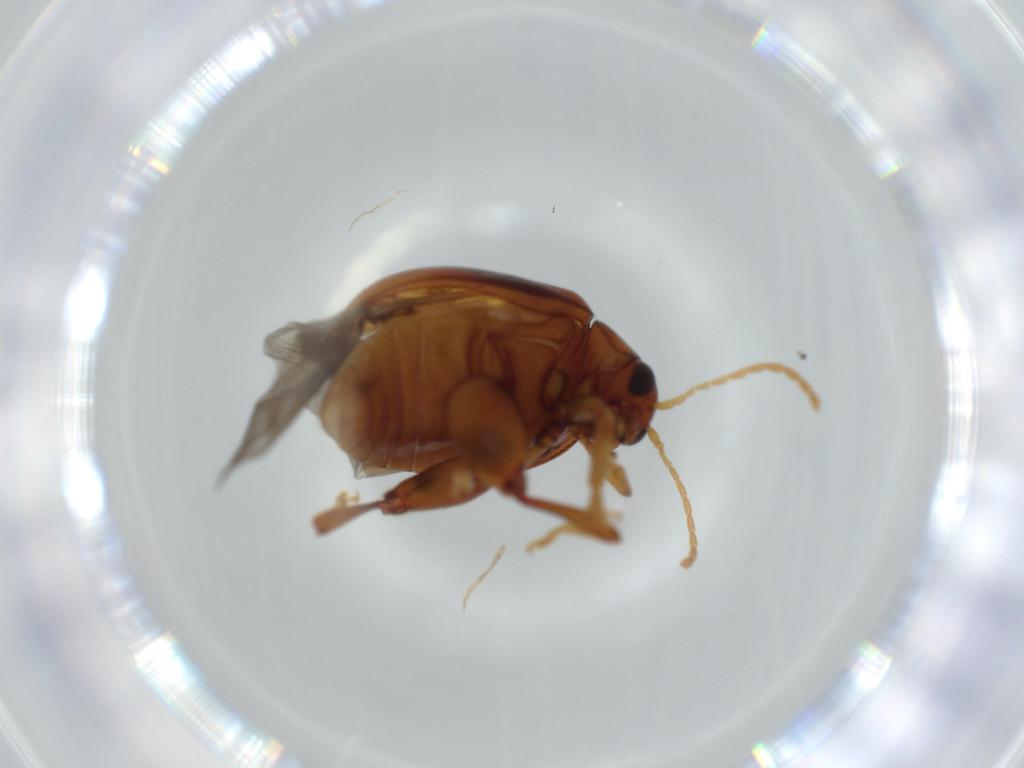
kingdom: Animalia
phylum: Arthropoda
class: Insecta
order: Coleoptera
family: Chrysomelidae
